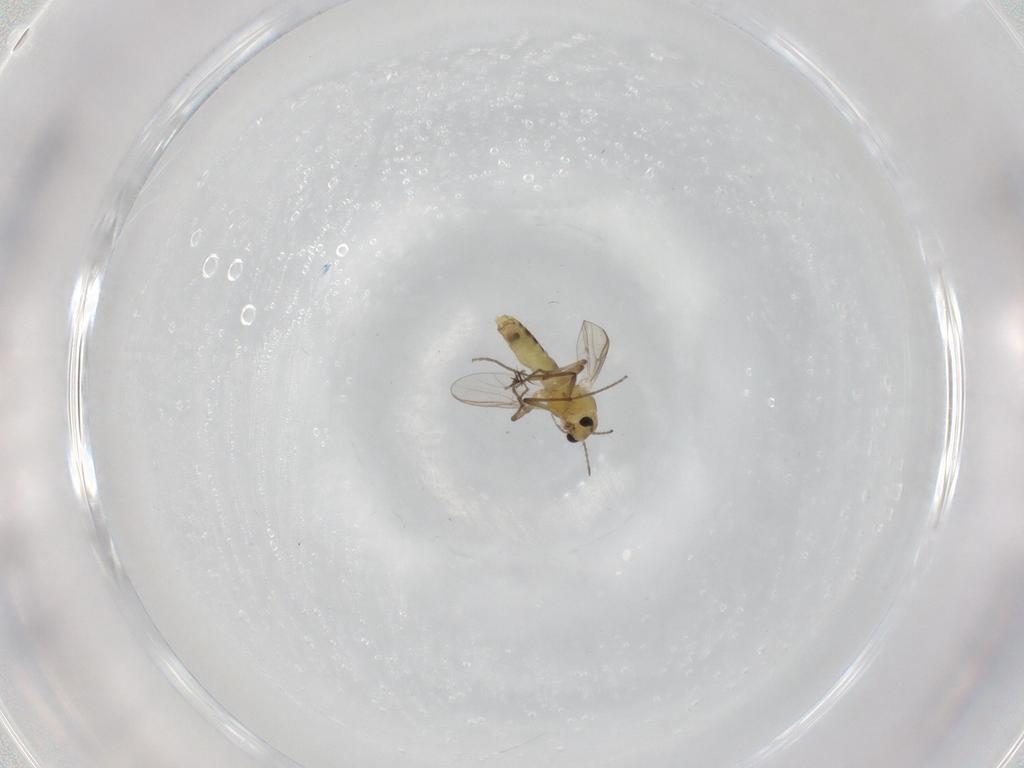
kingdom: Animalia
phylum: Arthropoda
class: Insecta
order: Diptera
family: Chironomidae
